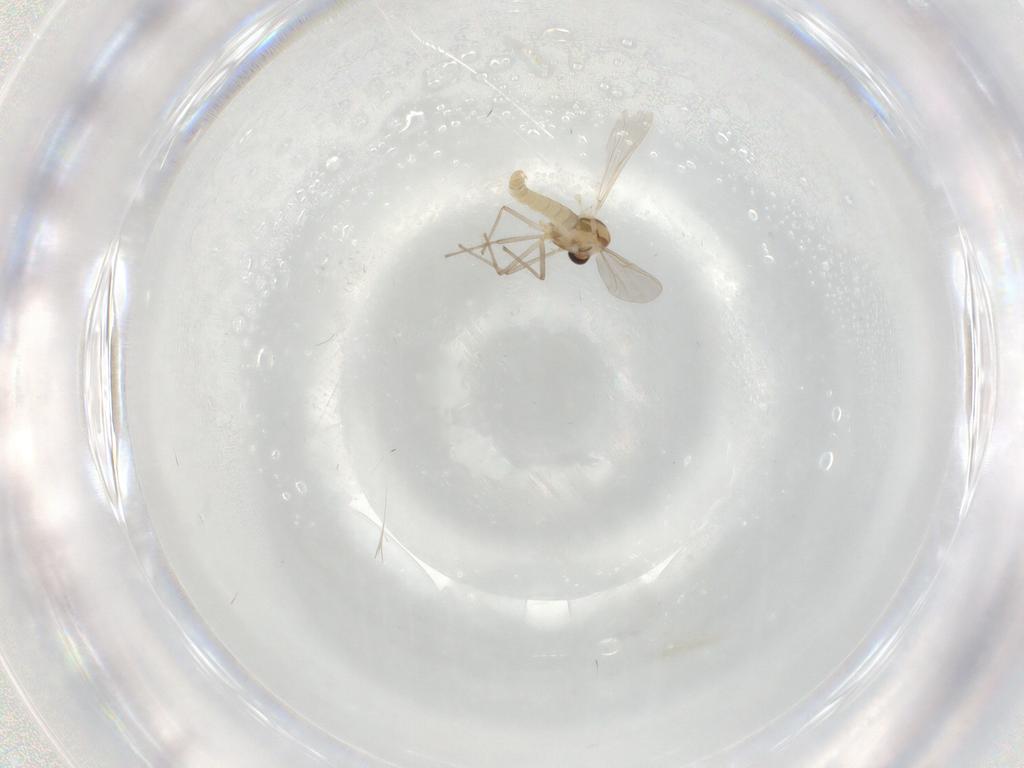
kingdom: Animalia
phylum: Arthropoda
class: Insecta
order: Diptera
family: Chironomidae
